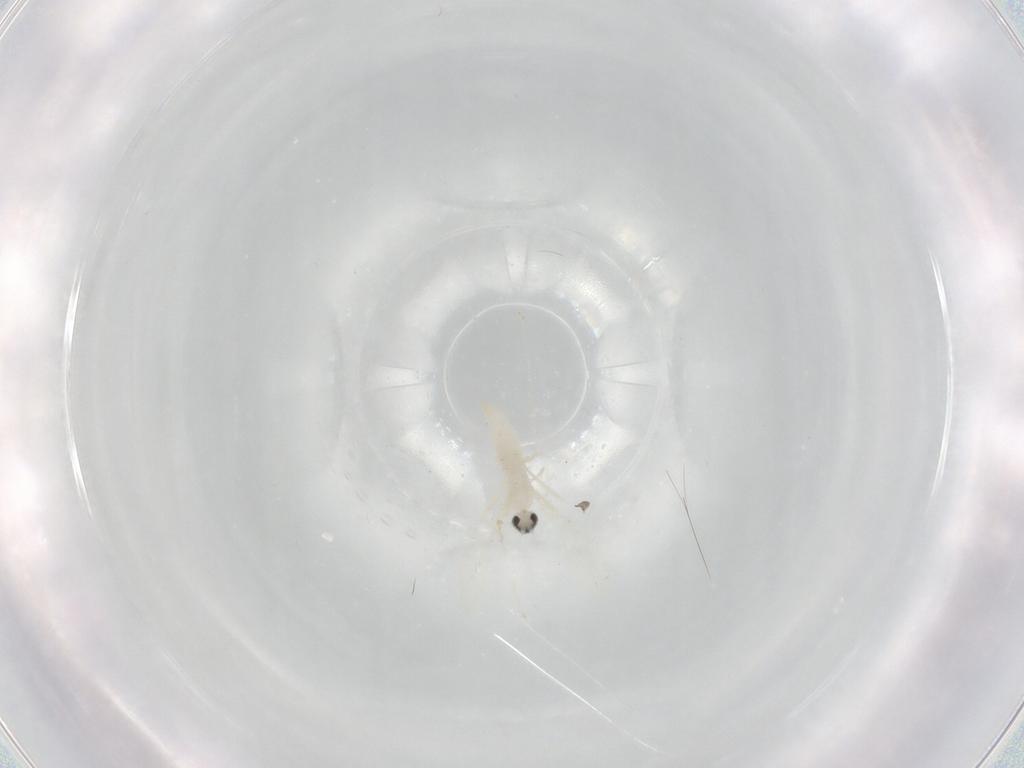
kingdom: Animalia
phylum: Arthropoda
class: Insecta
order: Diptera
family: Cecidomyiidae
